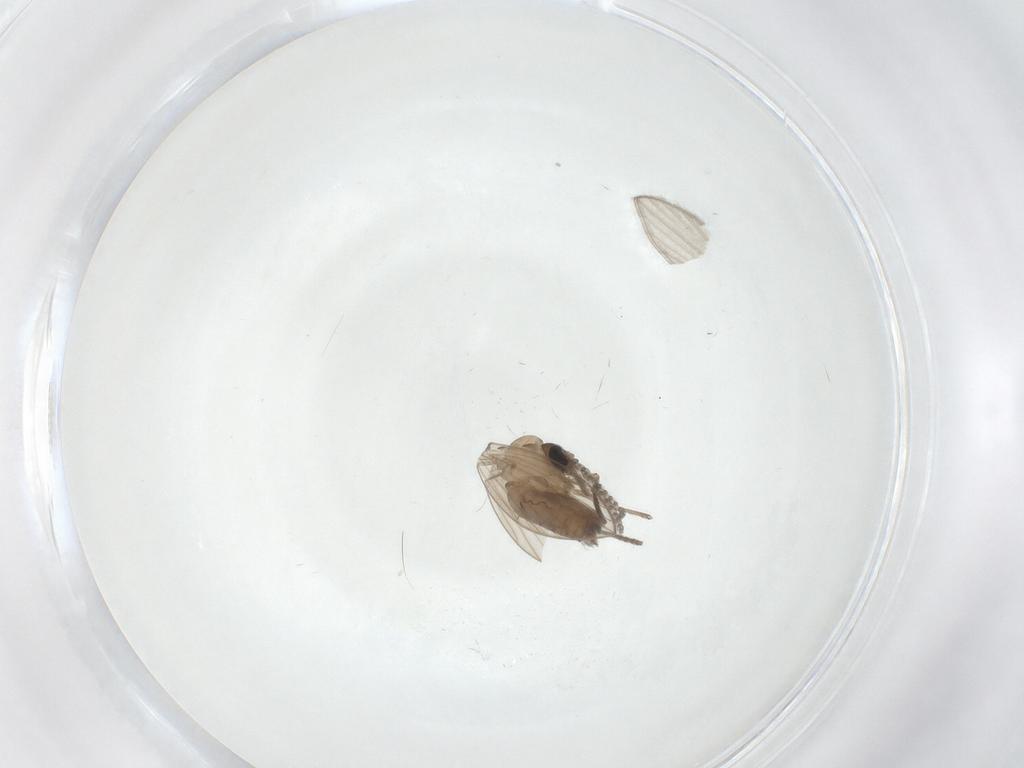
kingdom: Animalia
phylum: Arthropoda
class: Insecta
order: Diptera
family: Psychodidae
